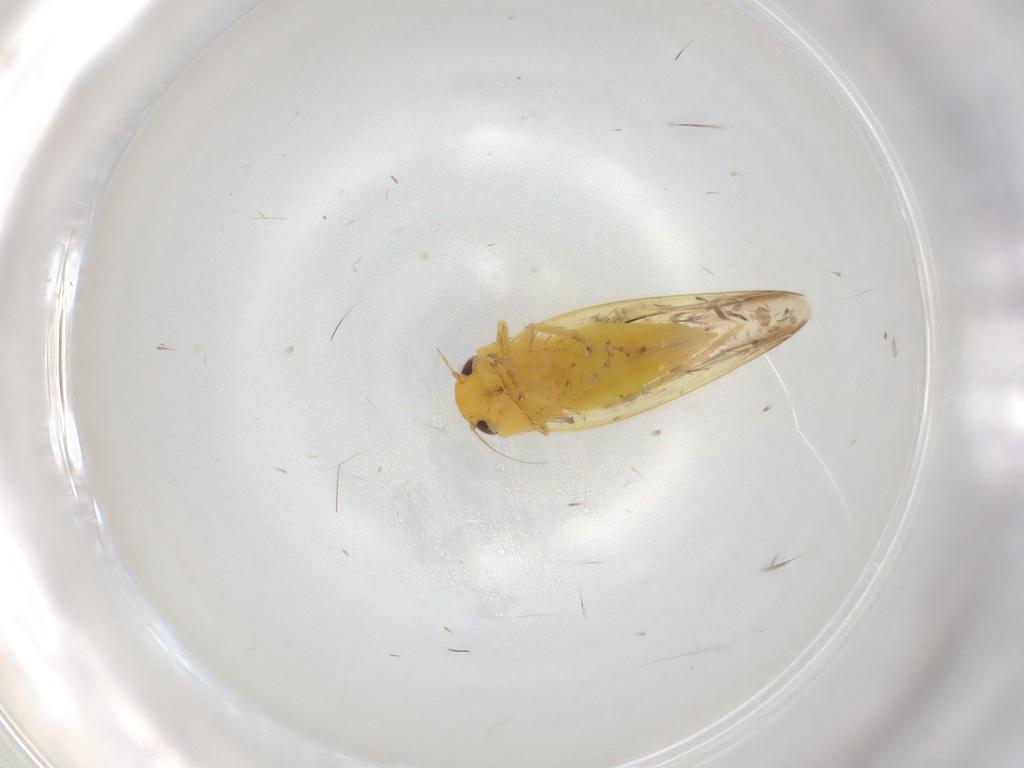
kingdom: Animalia
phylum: Arthropoda
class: Insecta
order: Hemiptera
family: Cicadellidae
